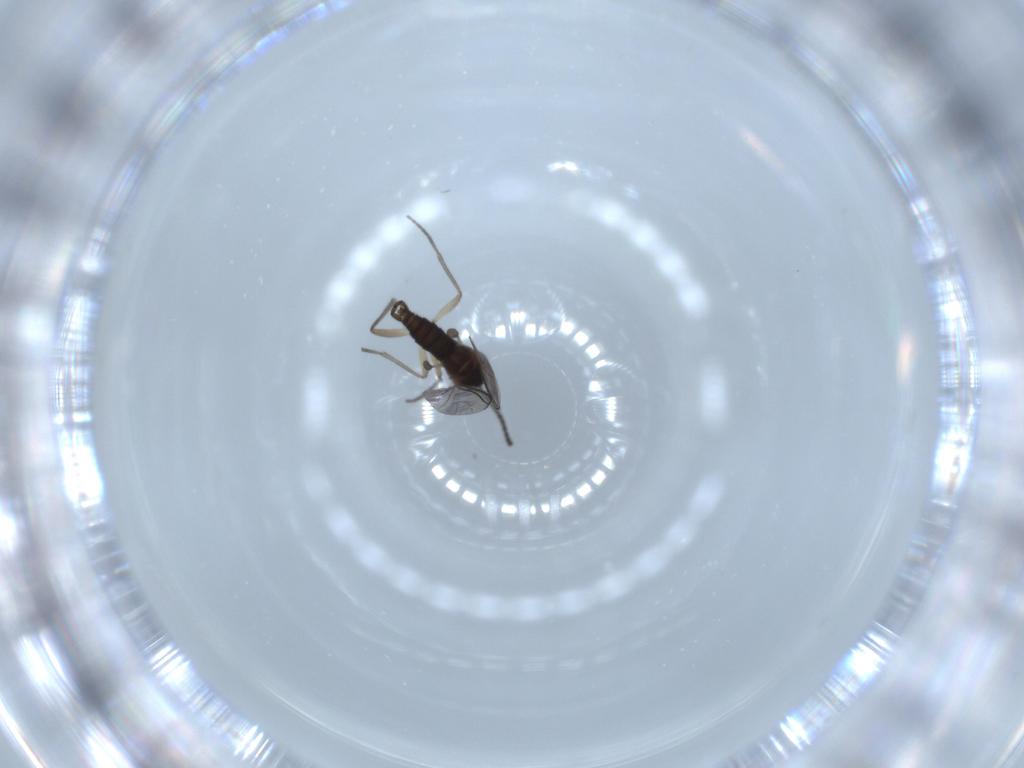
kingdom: Animalia
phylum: Arthropoda
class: Insecta
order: Diptera
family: Sciaridae
